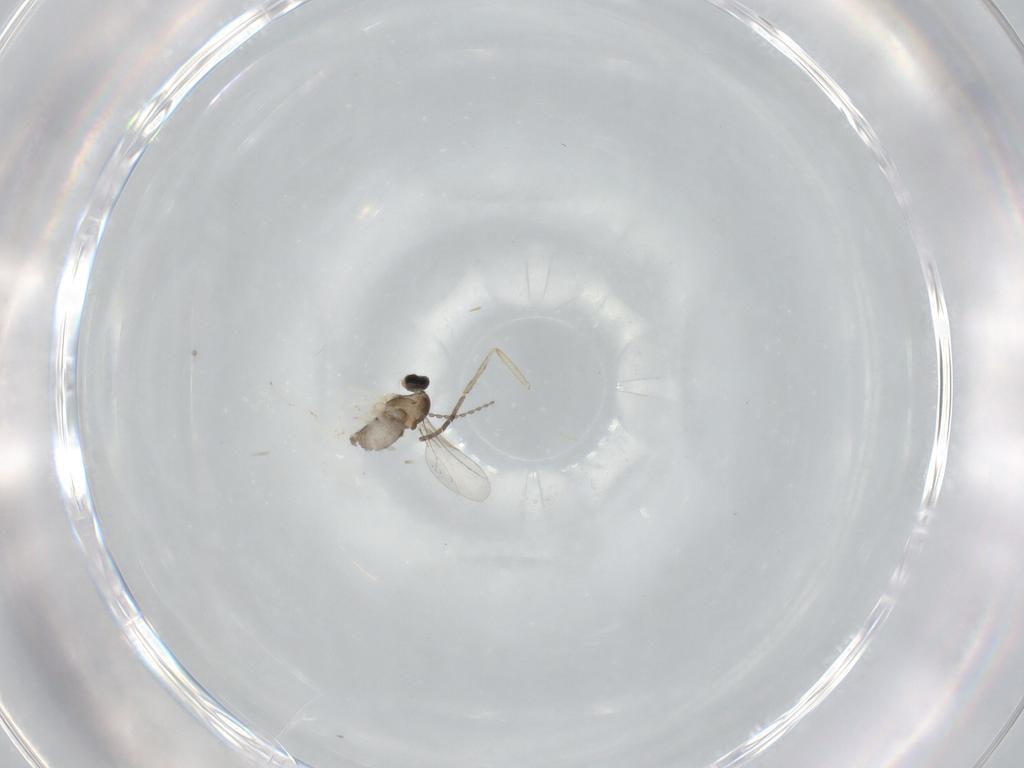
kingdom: Animalia
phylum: Arthropoda
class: Insecta
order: Diptera
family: Cecidomyiidae
